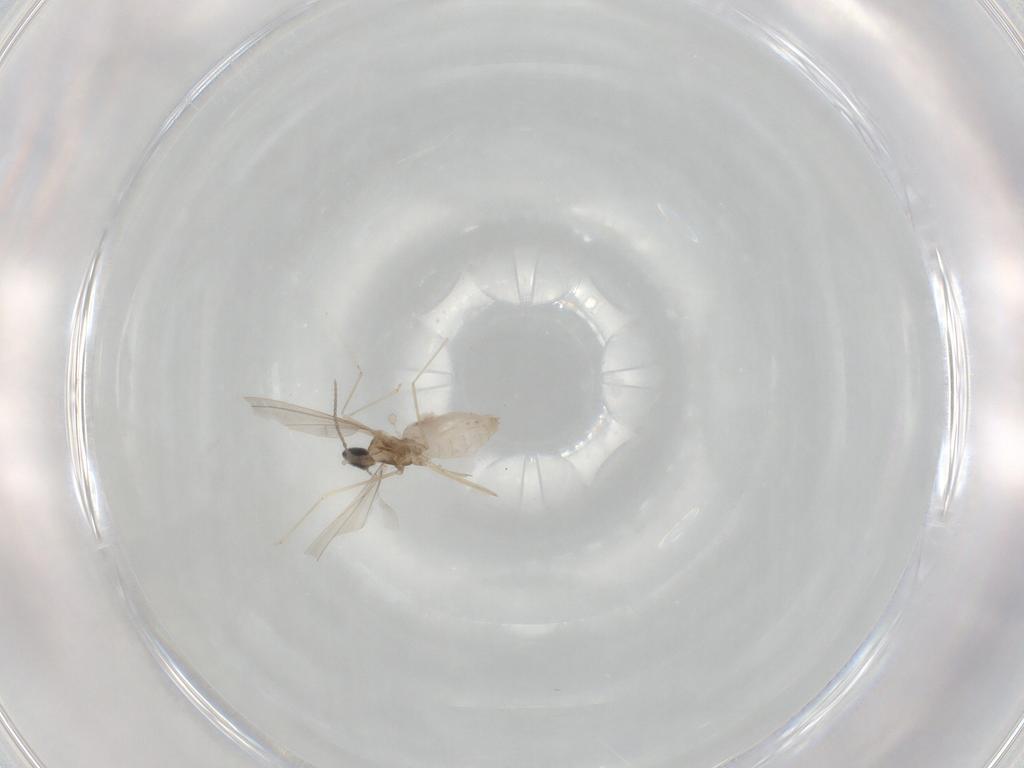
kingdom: Animalia
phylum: Arthropoda
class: Insecta
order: Diptera
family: Cecidomyiidae
